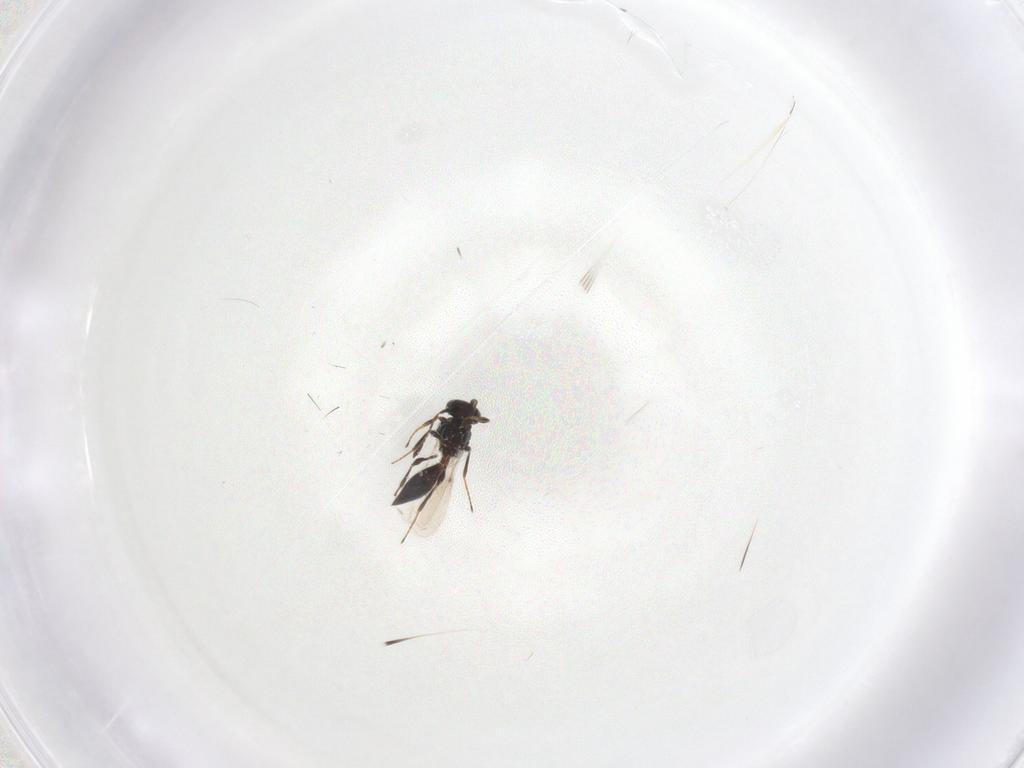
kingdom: Animalia
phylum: Arthropoda
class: Insecta
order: Hymenoptera
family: Platygastridae
